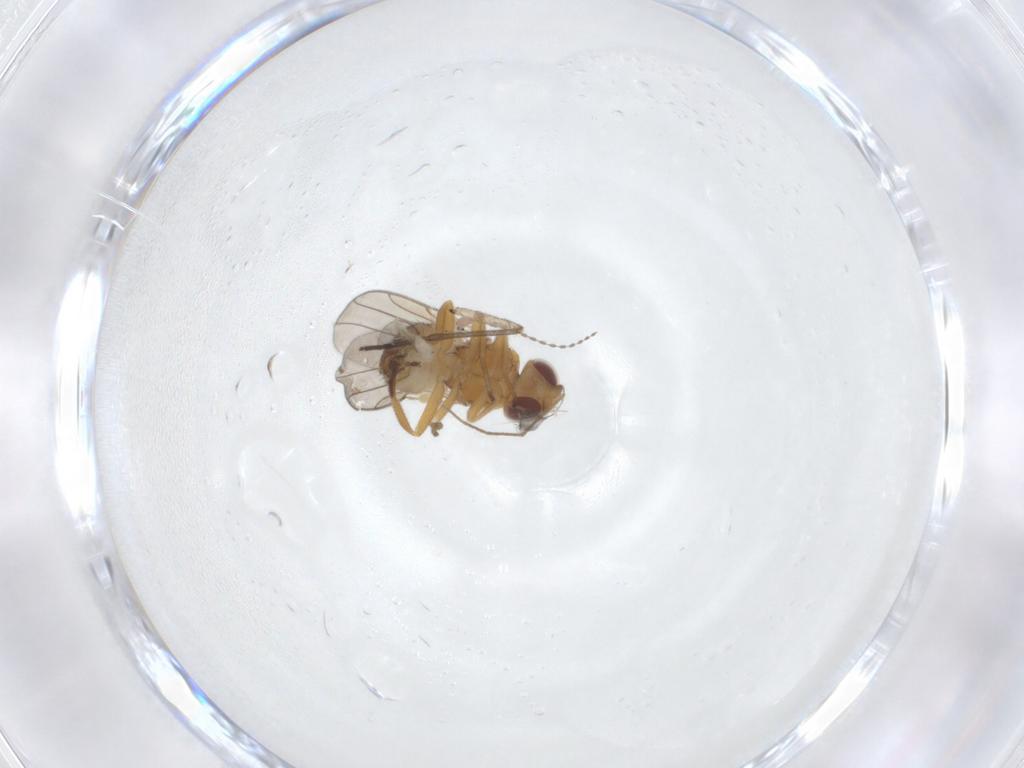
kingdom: Animalia
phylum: Arthropoda
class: Insecta
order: Diptera
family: Chloropidae
